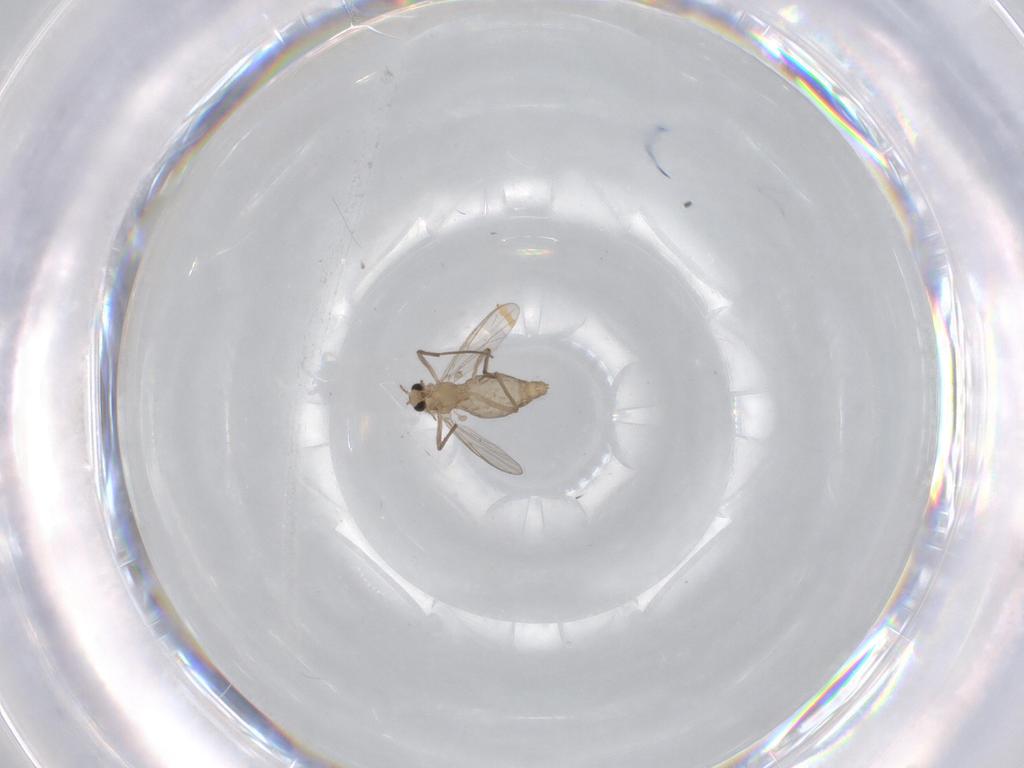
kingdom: Animalia
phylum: Arthropoda
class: Insecta
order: Diptera
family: Chironomidae
